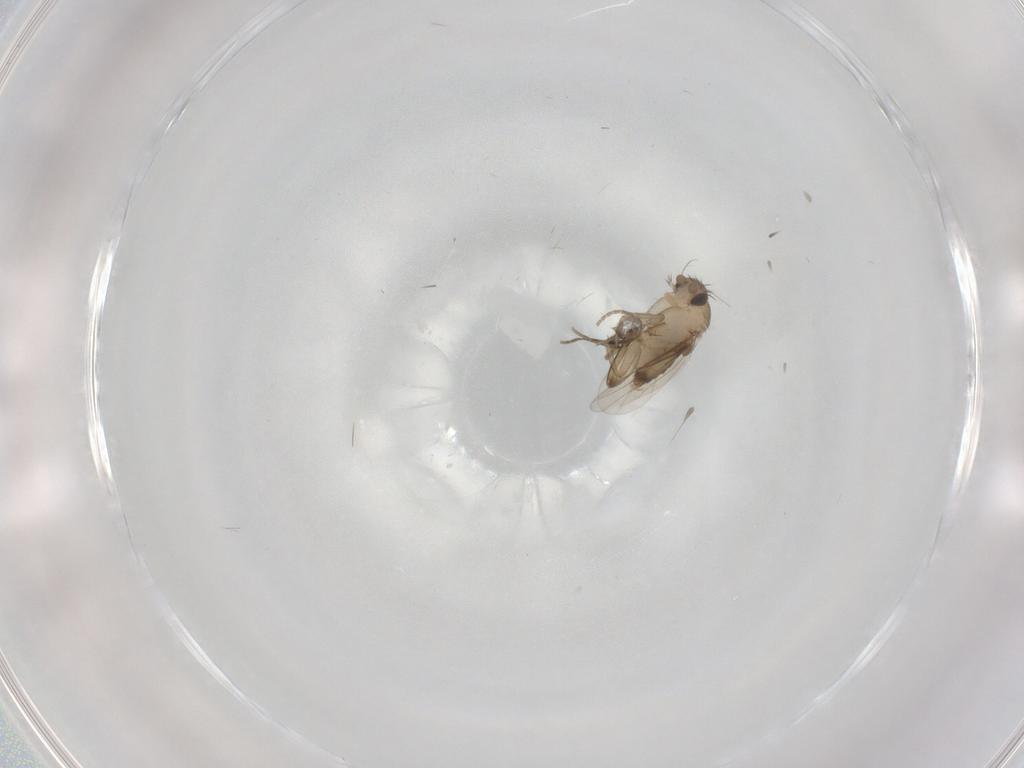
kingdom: Animalia
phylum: Arthropoda
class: Insecta
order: Diptera
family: Phoridae
